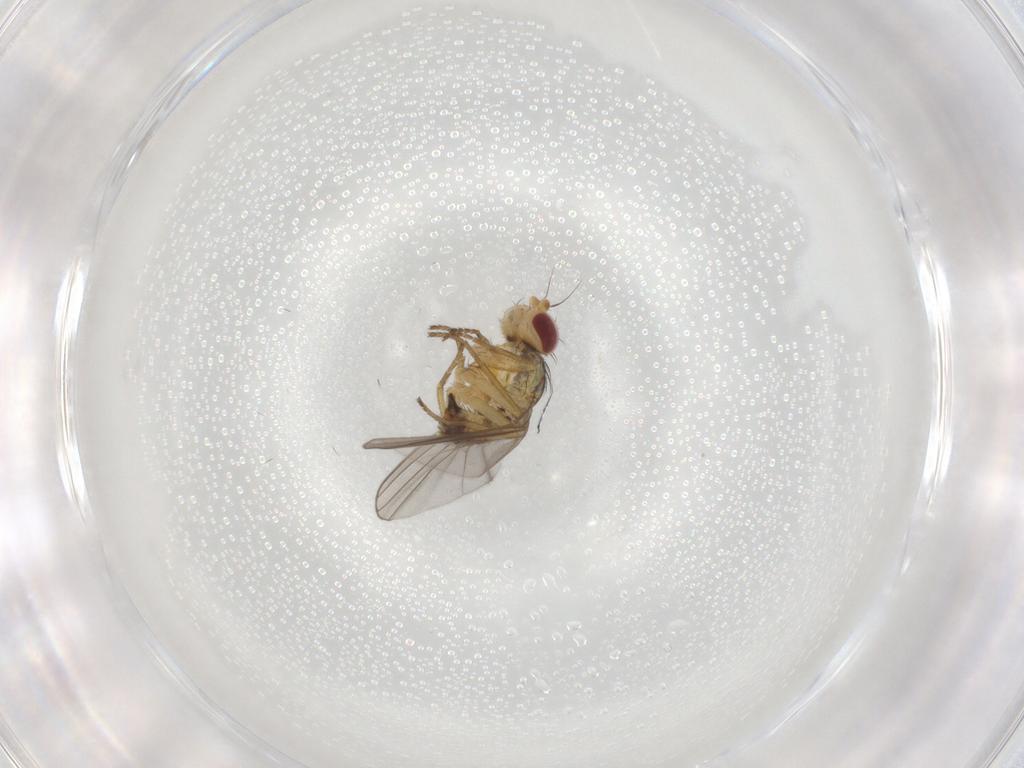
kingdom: Animalia
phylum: Arthropoda
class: Insecta
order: Diptera
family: Agromyzidae
